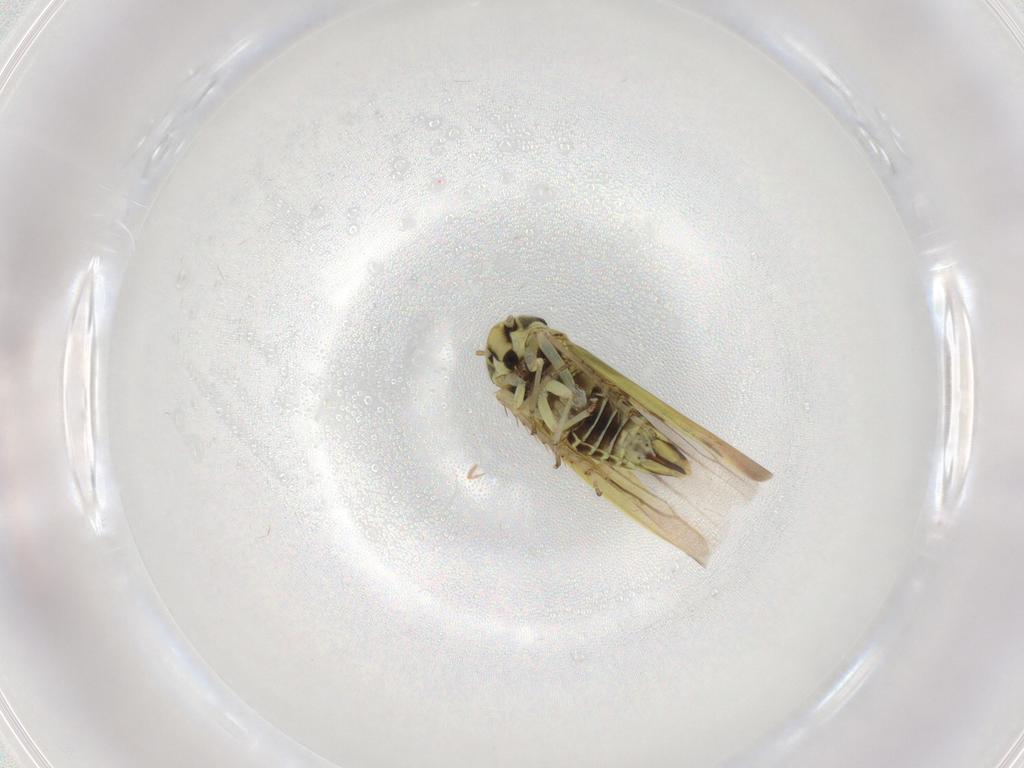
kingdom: Animalia
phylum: Arthropoda
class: Insecta
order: Hemiptera
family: Cicadellidae
